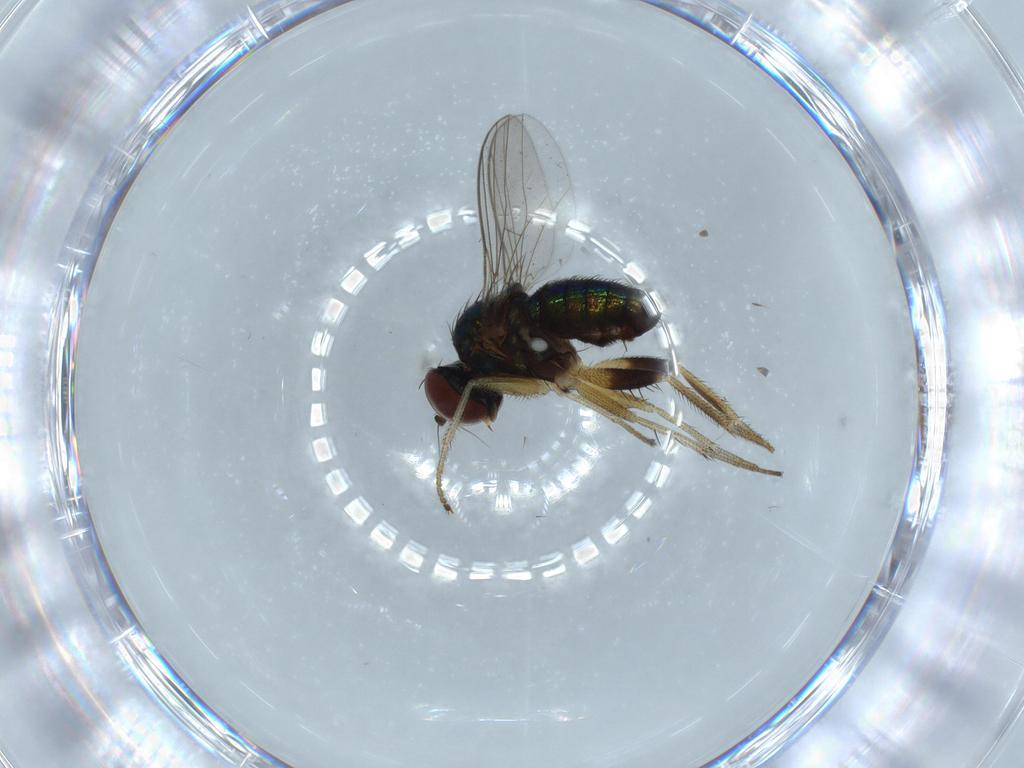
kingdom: Animalia
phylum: Arthropoda
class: Insecta
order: Diptera
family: Dolichopodidae
